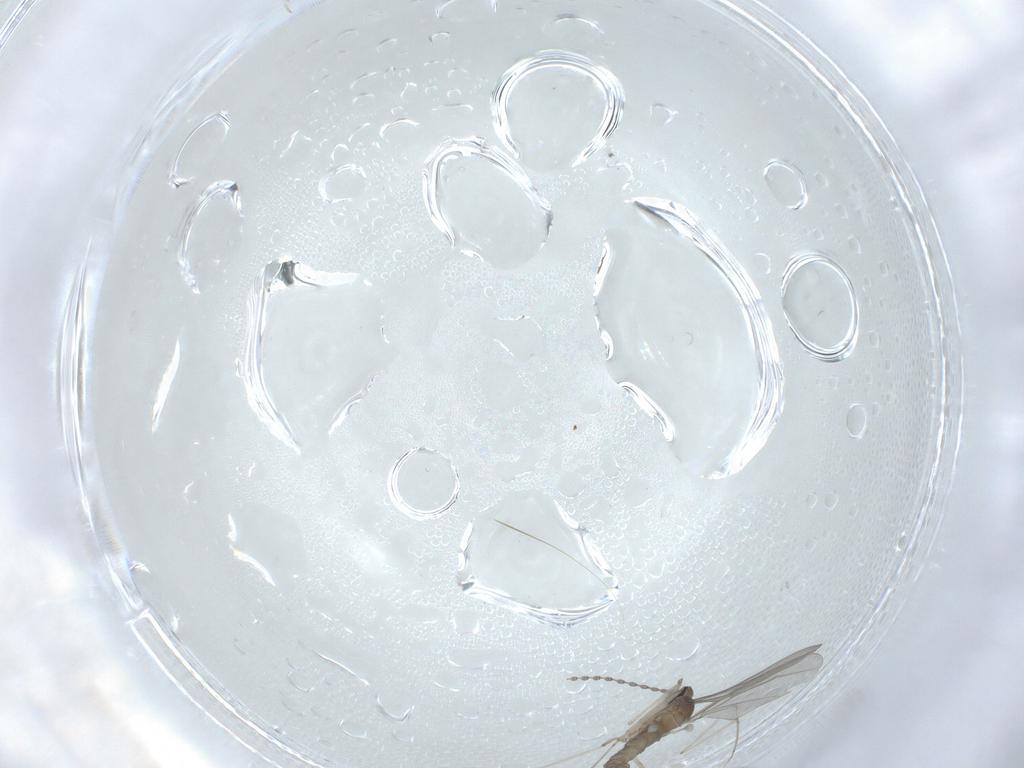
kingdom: Animalia
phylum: Arthropoda
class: Insecta
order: Diptera
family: Cecidomyiidae
